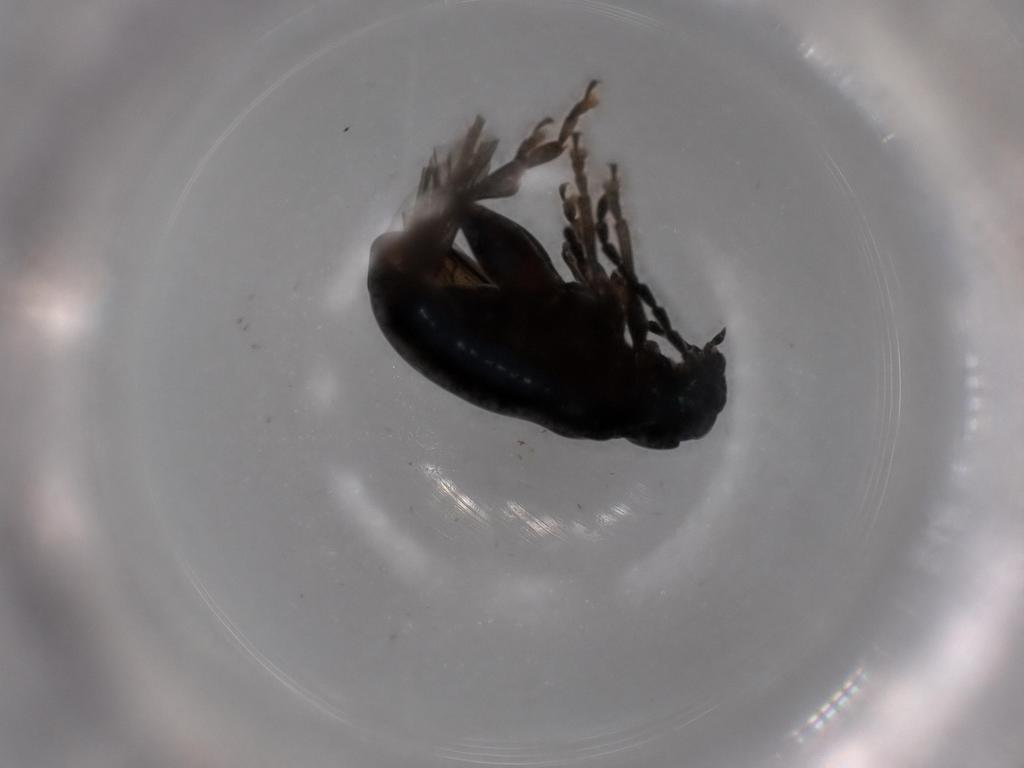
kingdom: Animalia
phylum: Arthropoda
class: Insecta
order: Coleoptera
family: Chrysomelidae
